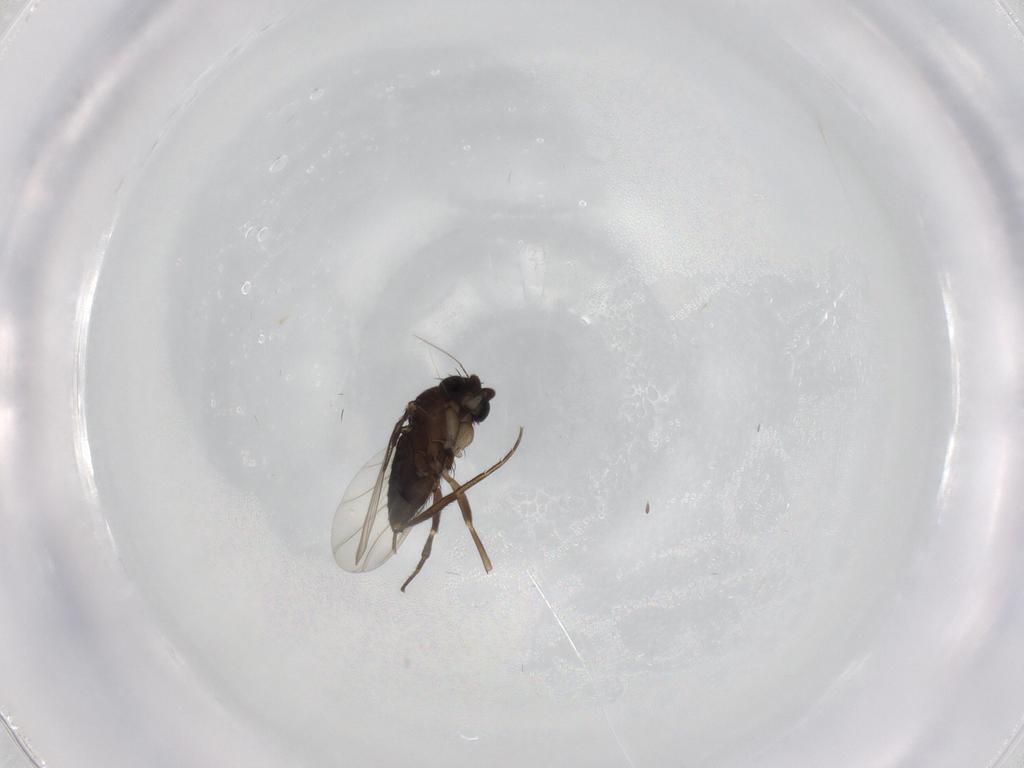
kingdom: Animalia
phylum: Arthropoda
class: Insecta
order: Diptera
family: Phoridae
